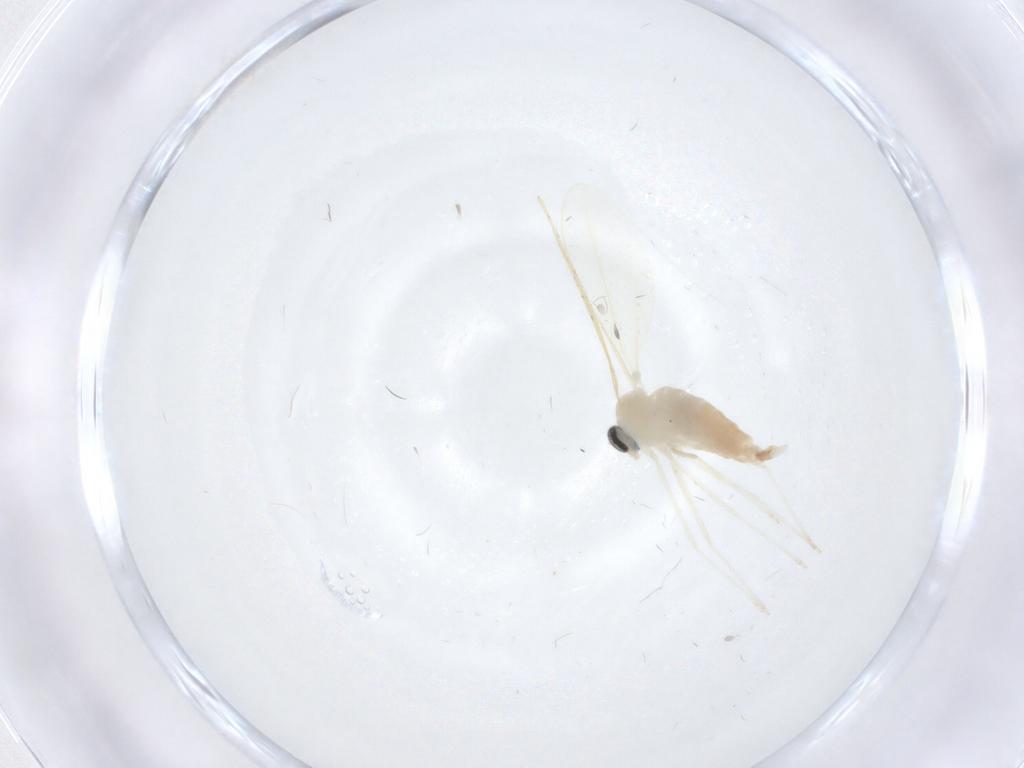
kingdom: Animalia
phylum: Arthropoda
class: Insecta
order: Diptera
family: Cecidomyiidae
